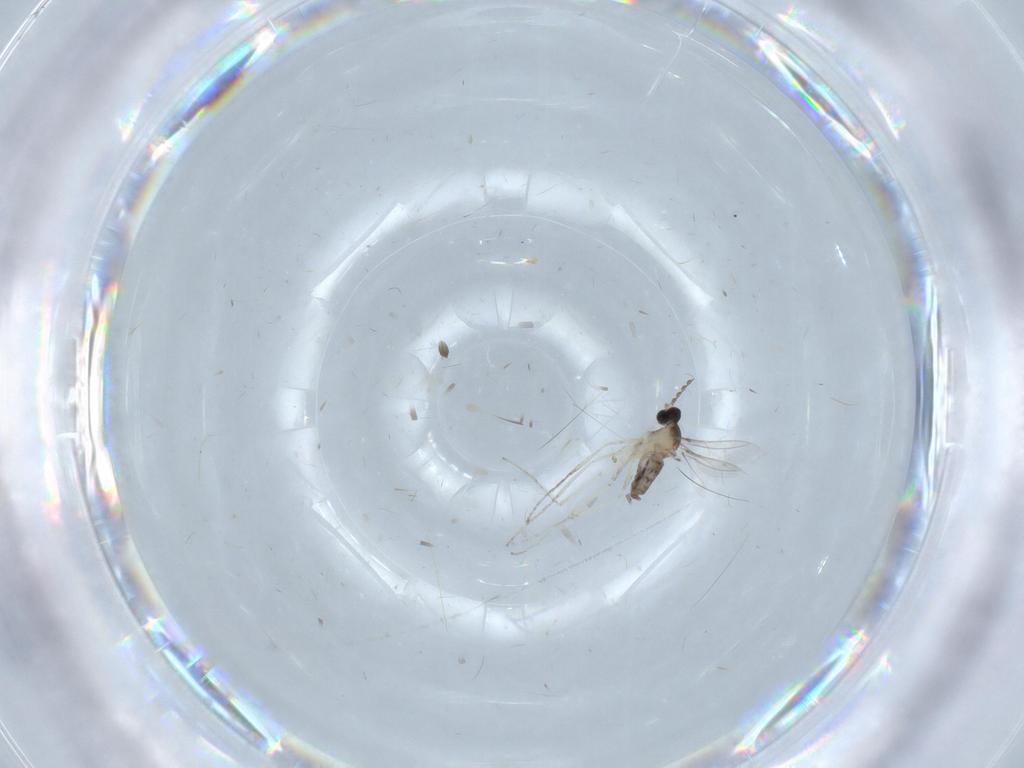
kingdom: Animalia
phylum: Arthropoda
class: Insecta
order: Diptera
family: Cecidomyiidae
